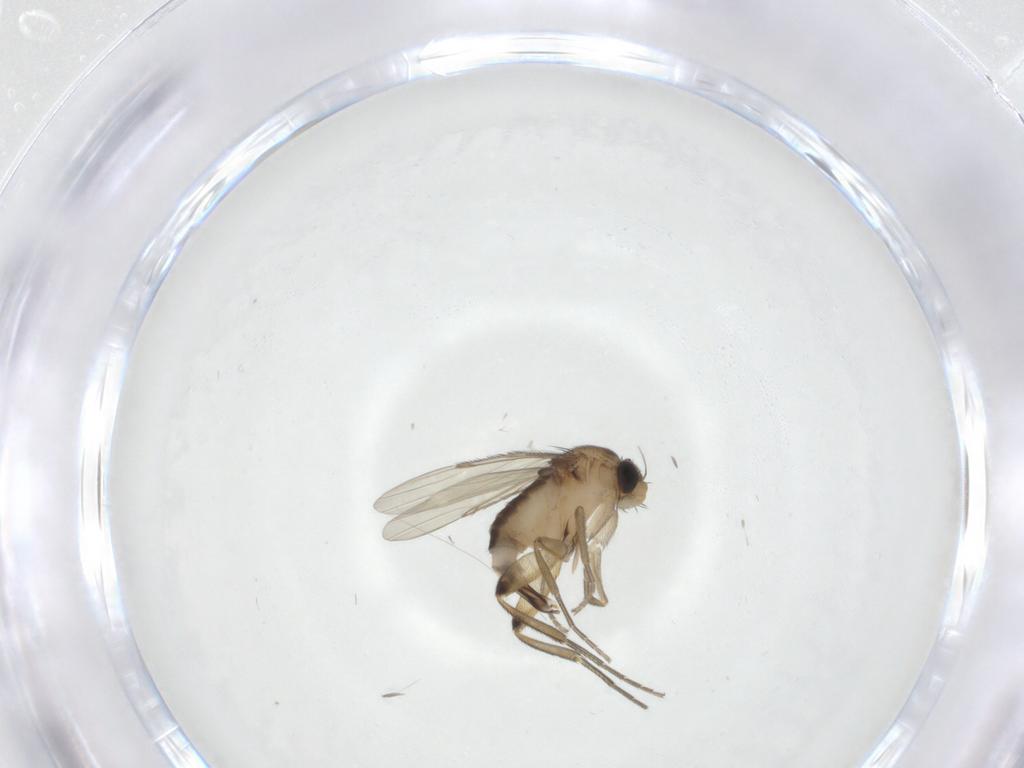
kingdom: Animalia
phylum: Arthropoda
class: Insecta
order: Diptera
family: Phoridae
